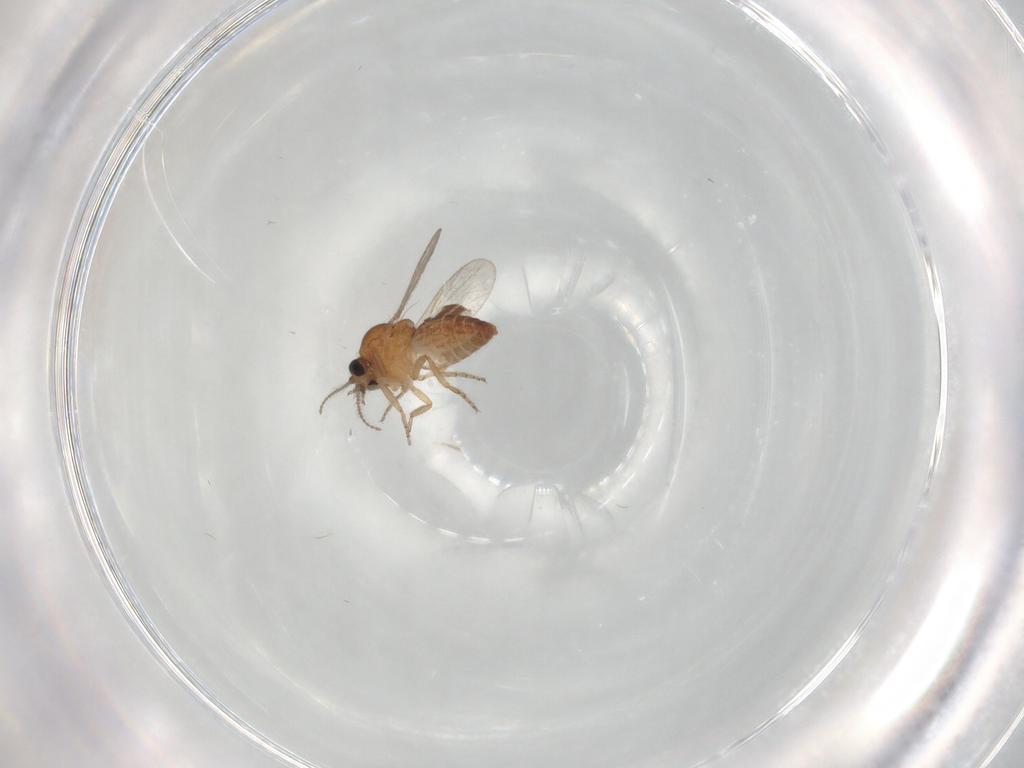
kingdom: Animalia
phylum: Arthropoda
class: Insecta
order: Diptera
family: Ceratopogonidae
